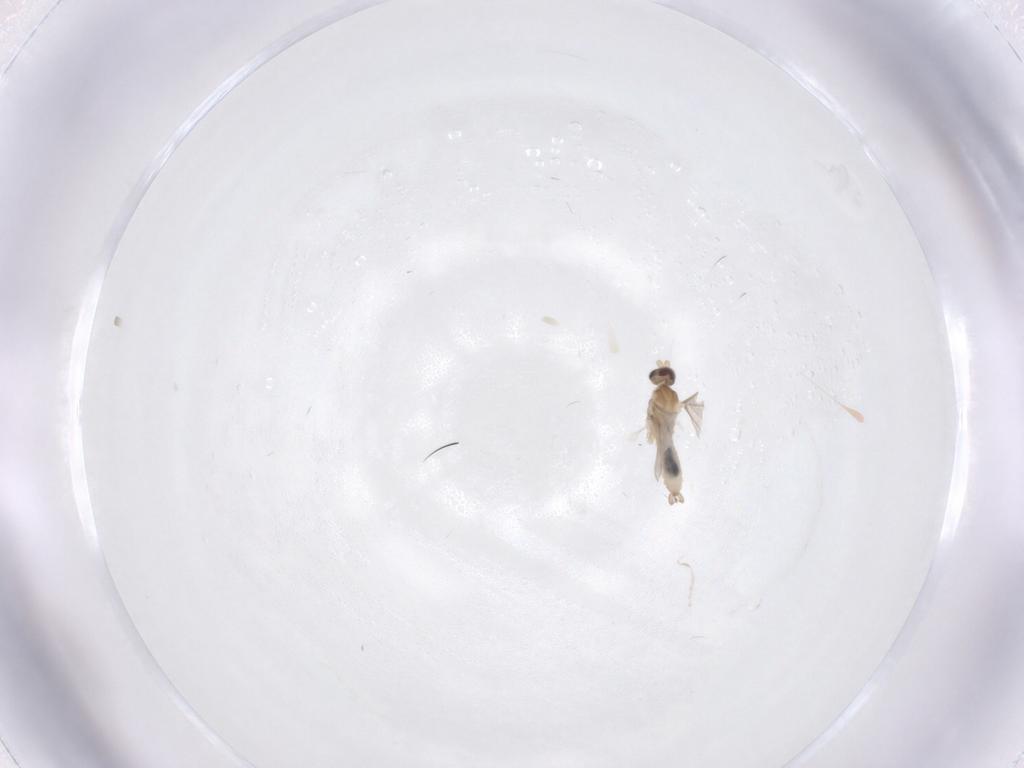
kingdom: Animalia
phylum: Arthropoda
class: Insecta
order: Diptera
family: Cecidomyiidae
